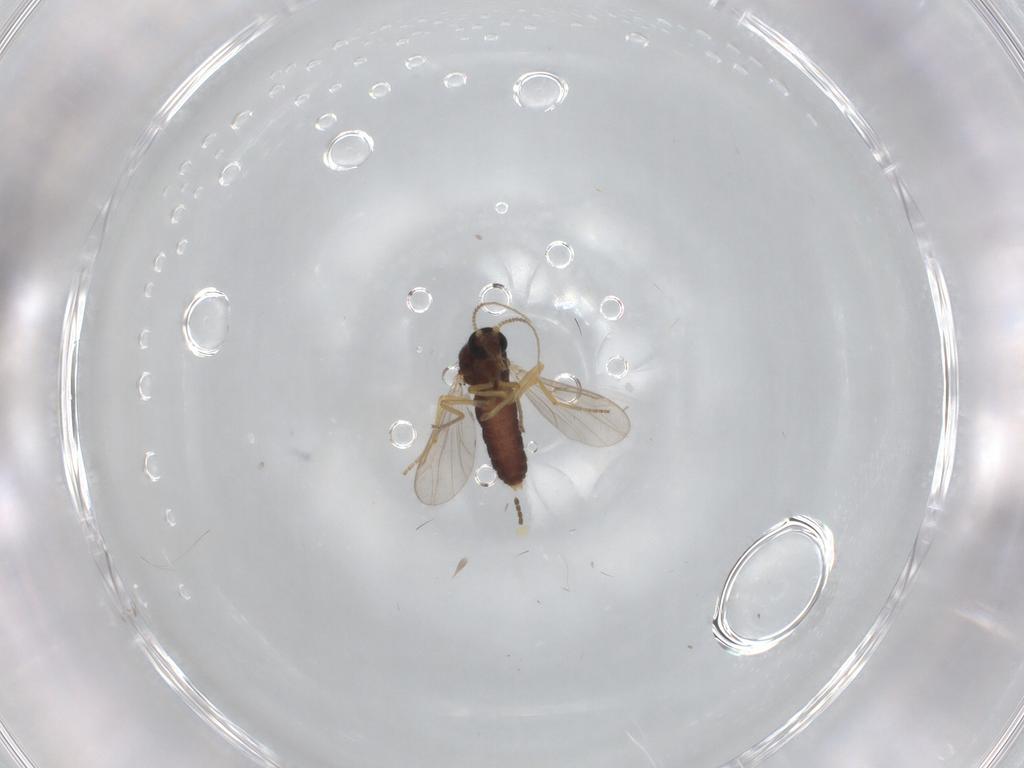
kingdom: Animalia
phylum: Arthropoda
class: Insecta
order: Diptera
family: Ceratopogonidae
